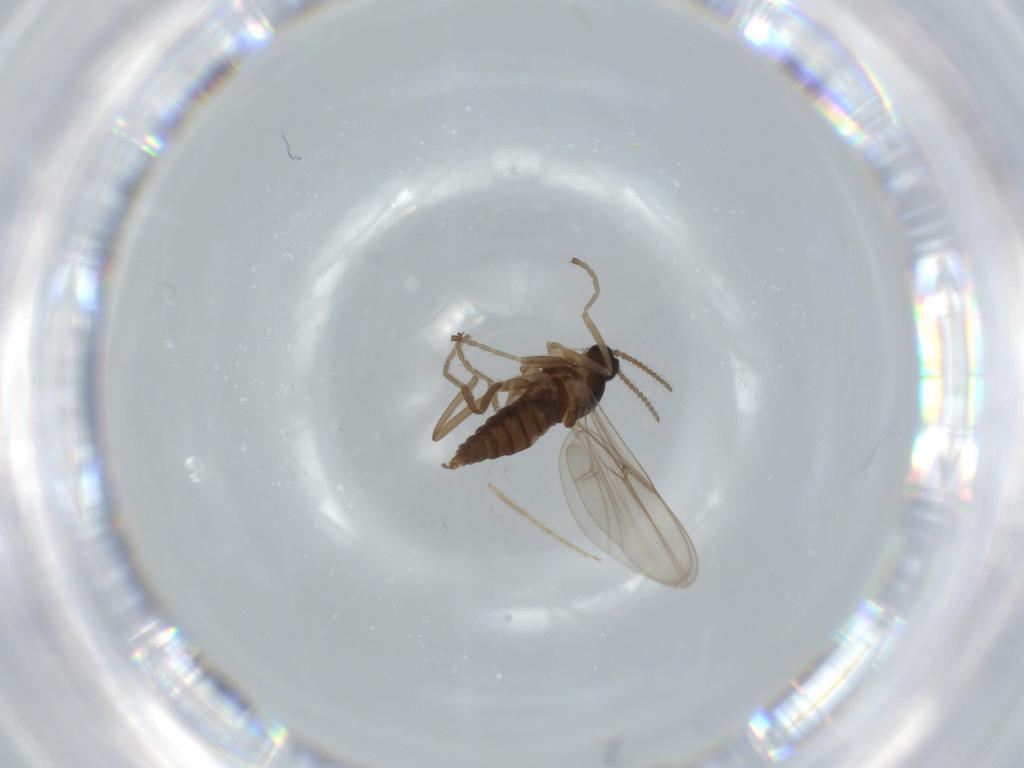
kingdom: Animalia
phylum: Arthropoda
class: Insecta
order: Diptera
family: Cecidomyiidae
